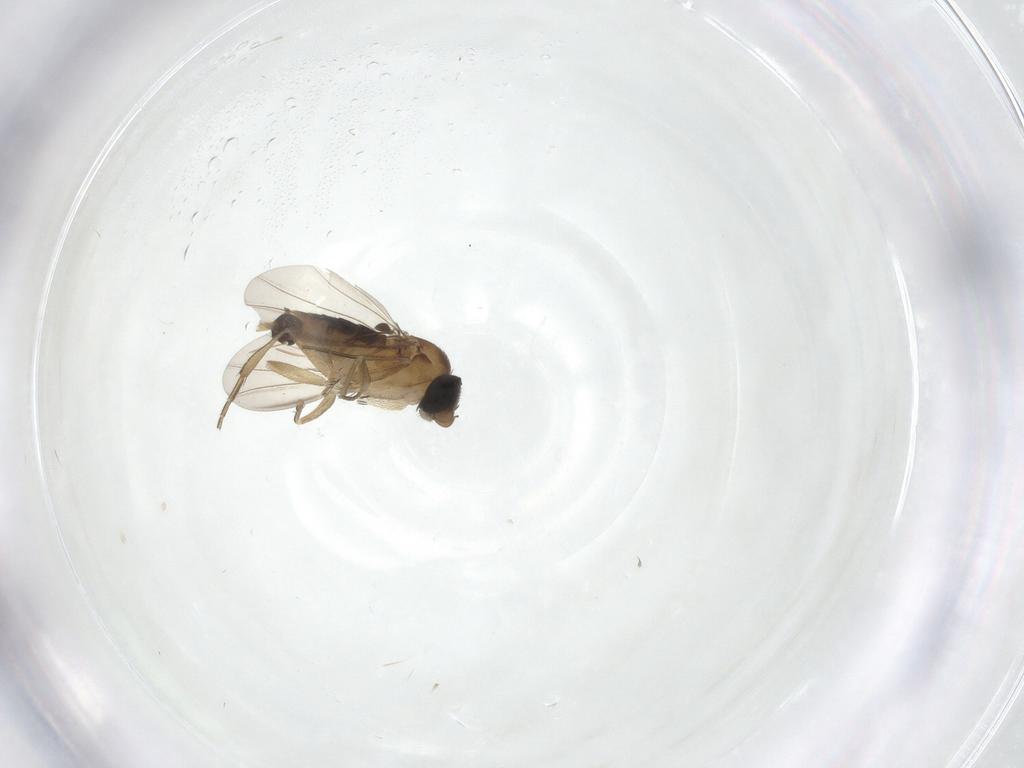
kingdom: Animalia
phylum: Arthropoda
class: Insecta
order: Diptera
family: Phoridae
